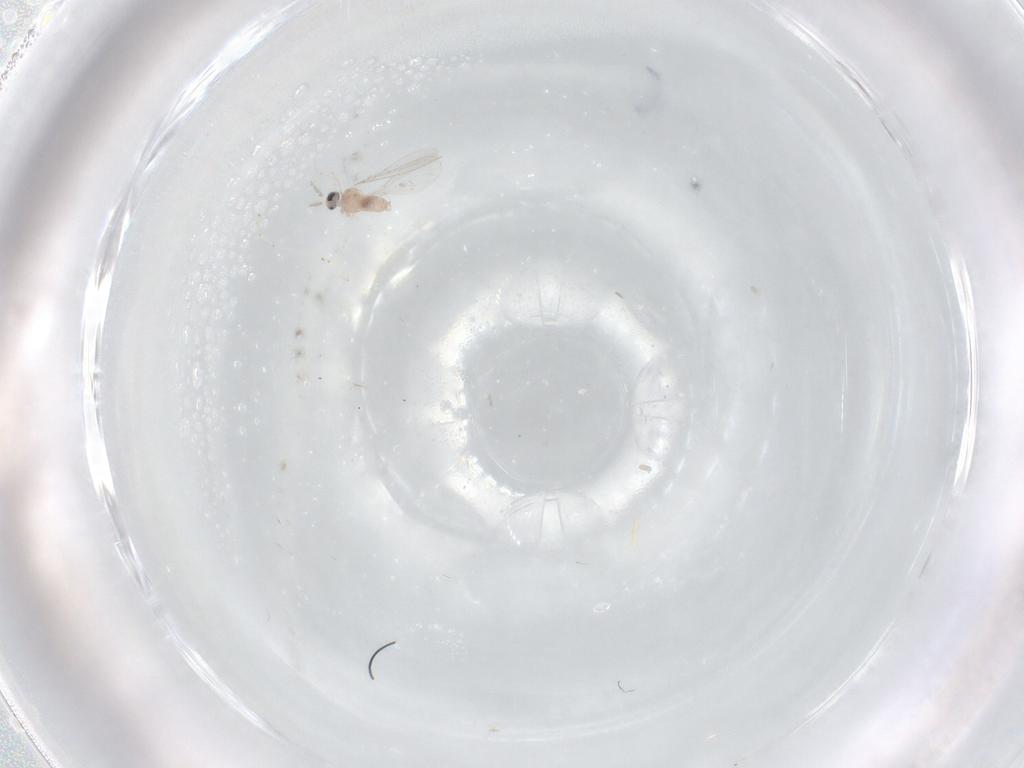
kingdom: Animalia
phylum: Arthropoda
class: Insecta
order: Diptera
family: Cecidomyiidae
